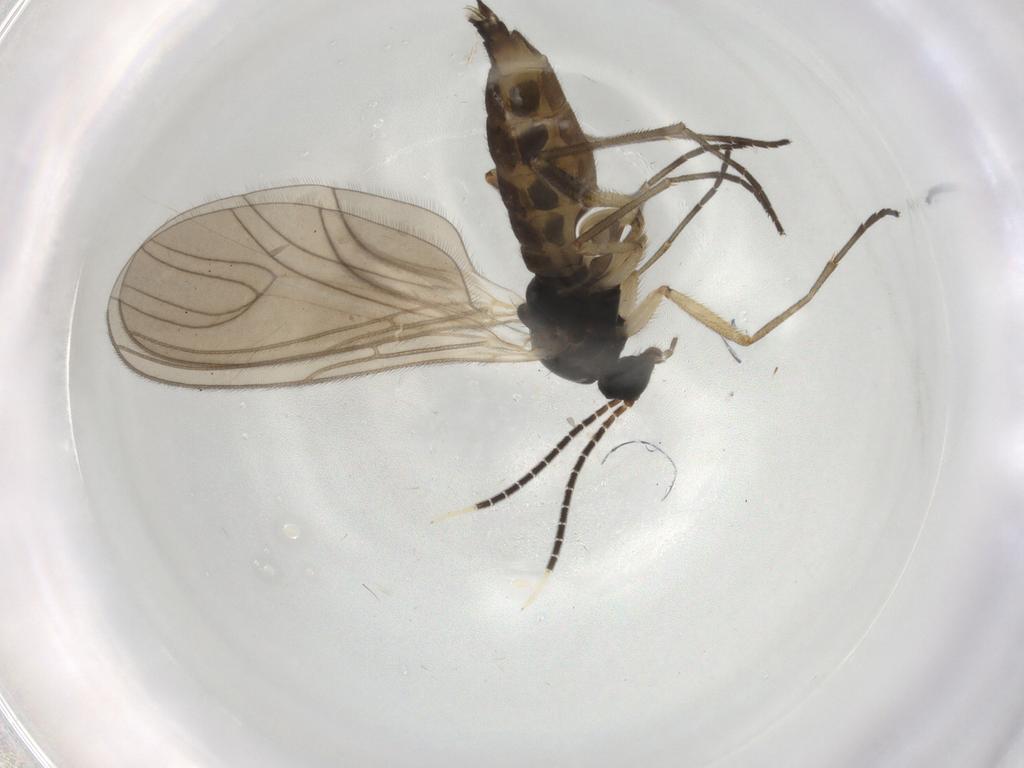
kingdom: Animalia
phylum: Arthropoda
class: Insecta
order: Diptera
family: Sciaridae
